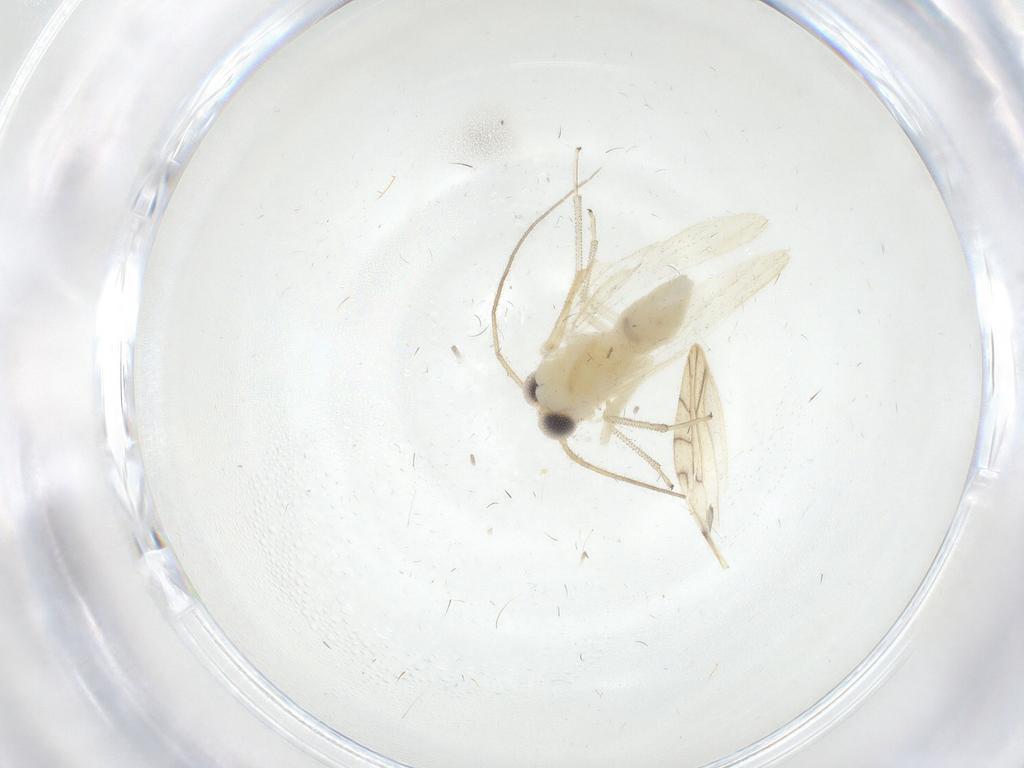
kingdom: Animalia
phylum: Arthropoda
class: Insecta
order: Psocodea
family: Caeciliusidae
